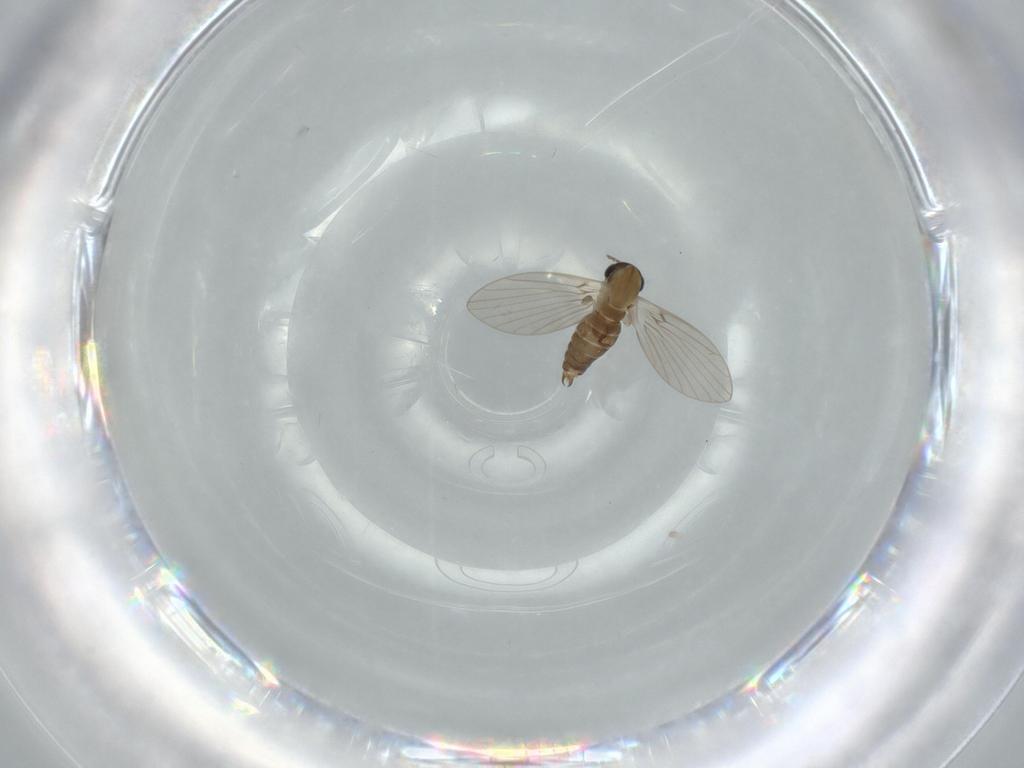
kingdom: Animalia
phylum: Arthropoda
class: Insecta
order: Diptera
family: Psychodidae
